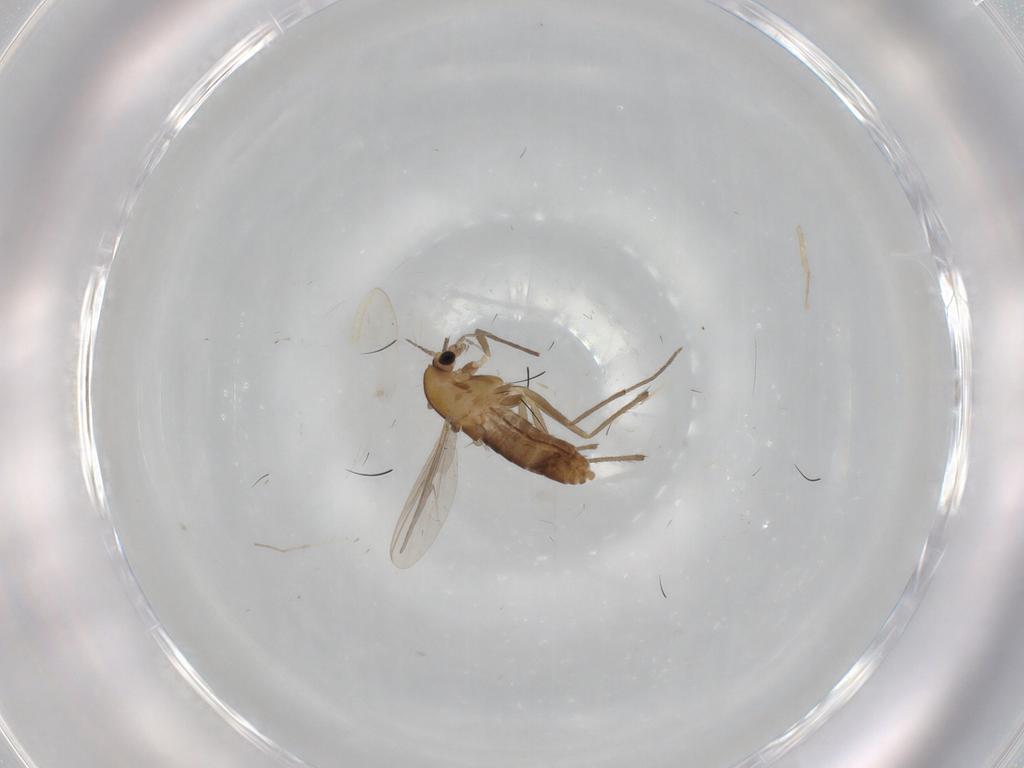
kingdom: Animalia
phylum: Arthropoda
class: Insecta
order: Diptera
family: Chironomidae
